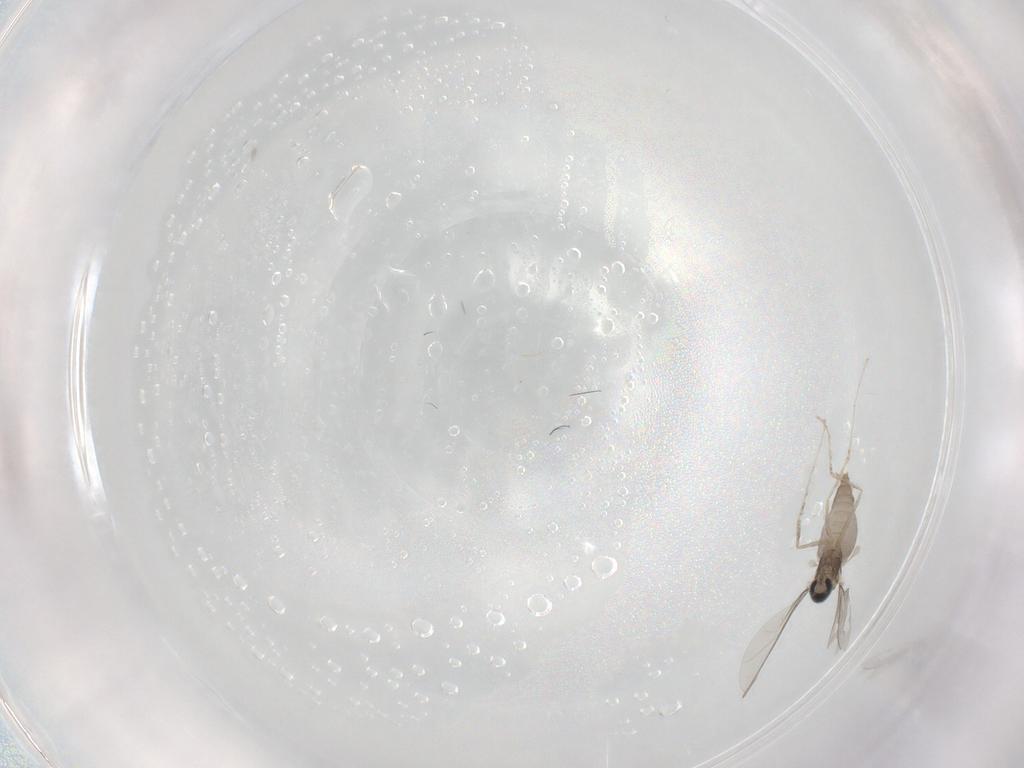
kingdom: Animalia
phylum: Arthropoda
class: Insecta
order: Diptera
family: Cecidomyiidae
